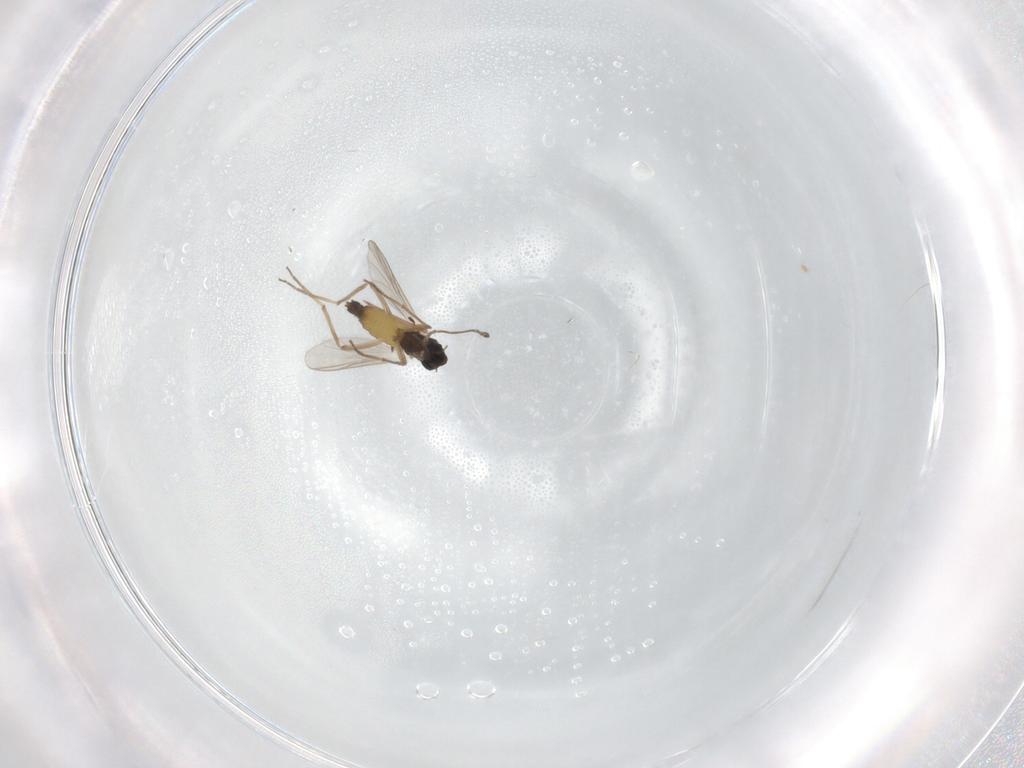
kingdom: Animalia
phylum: Arthropoda
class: Insecta
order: Diptera
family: Chironomidae
